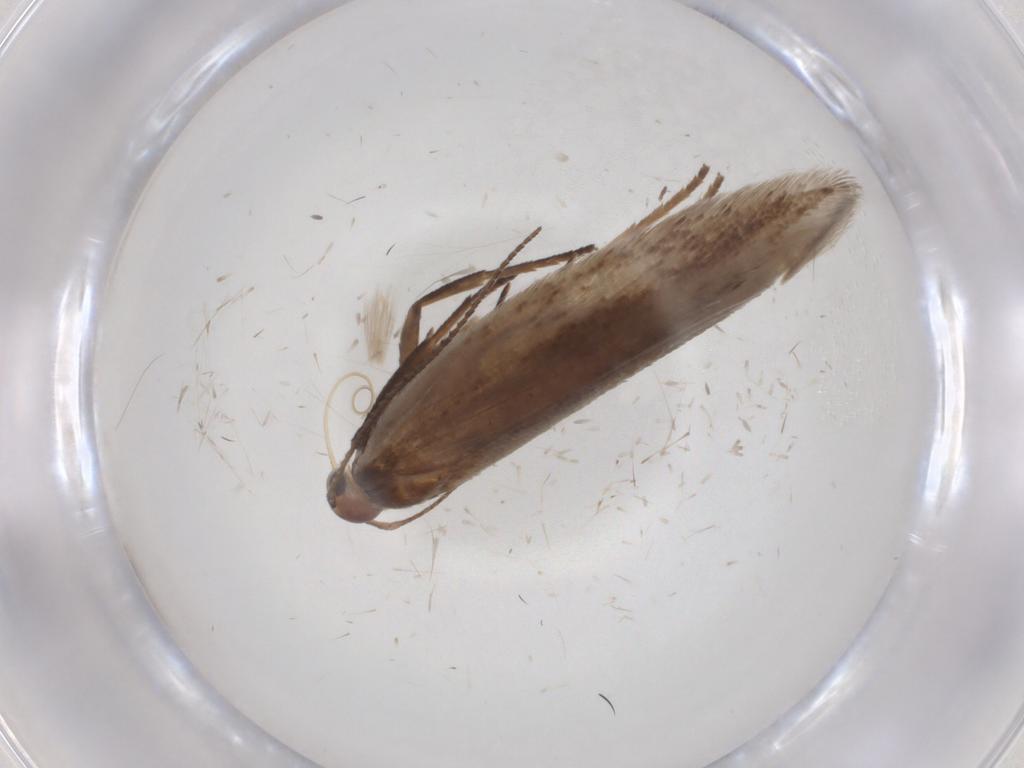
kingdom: Animalia
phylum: Arthropoda
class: Insecta
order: Lepidoptera
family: Gelechiidae
